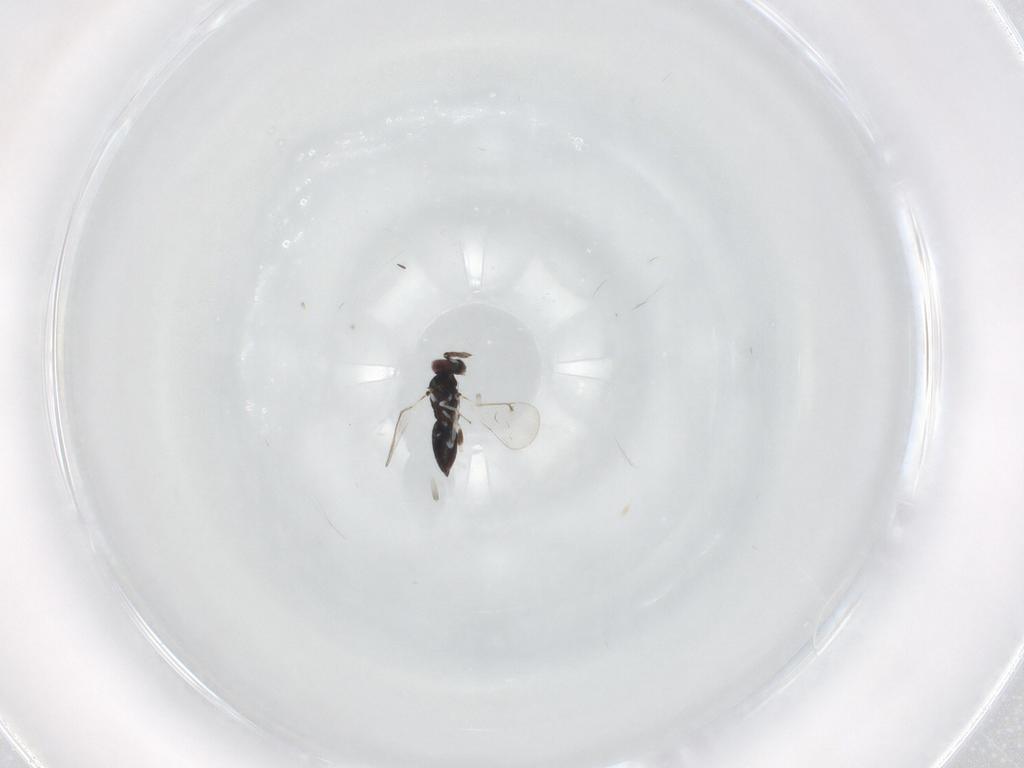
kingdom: Animalia
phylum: Arthropoda
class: Insecta
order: Hymenoptera
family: Eulophidae
